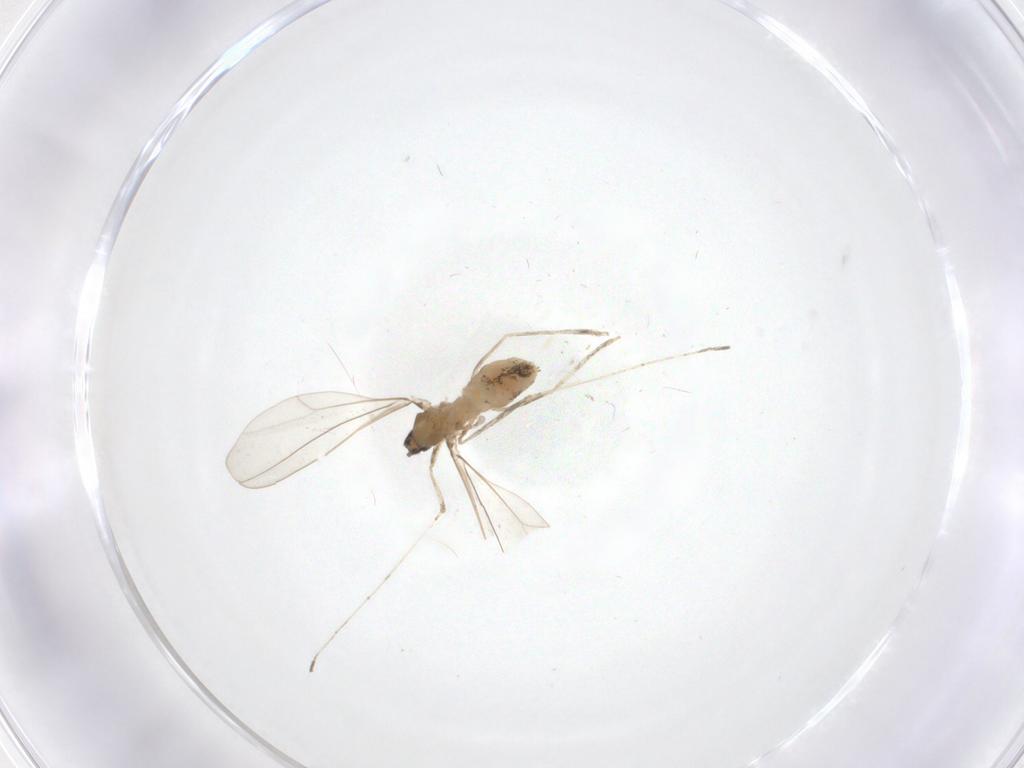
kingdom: Animalia
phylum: Arthropoda
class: Insecta
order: Diptera
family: Cecidomyiidae
